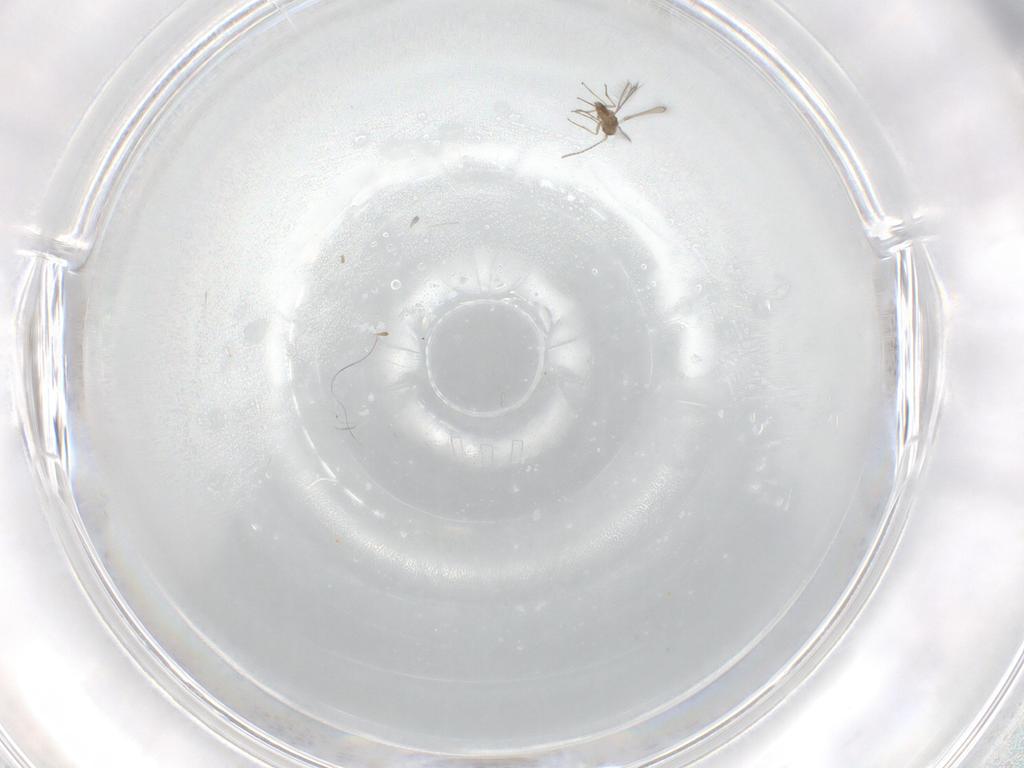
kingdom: Animalia
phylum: Arthropoda
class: Insecta
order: Hymenoptera
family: Mymaridae
